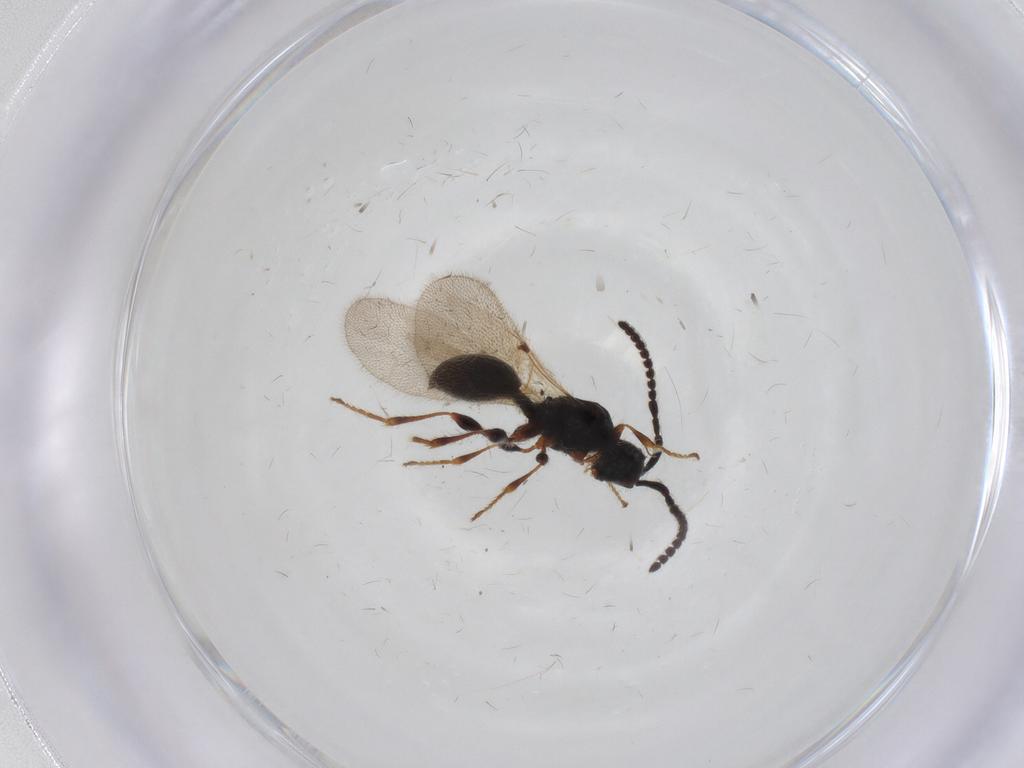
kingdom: Animalia
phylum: Arthropoda
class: Insecta
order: Hymenoptera
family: Diapriidae
